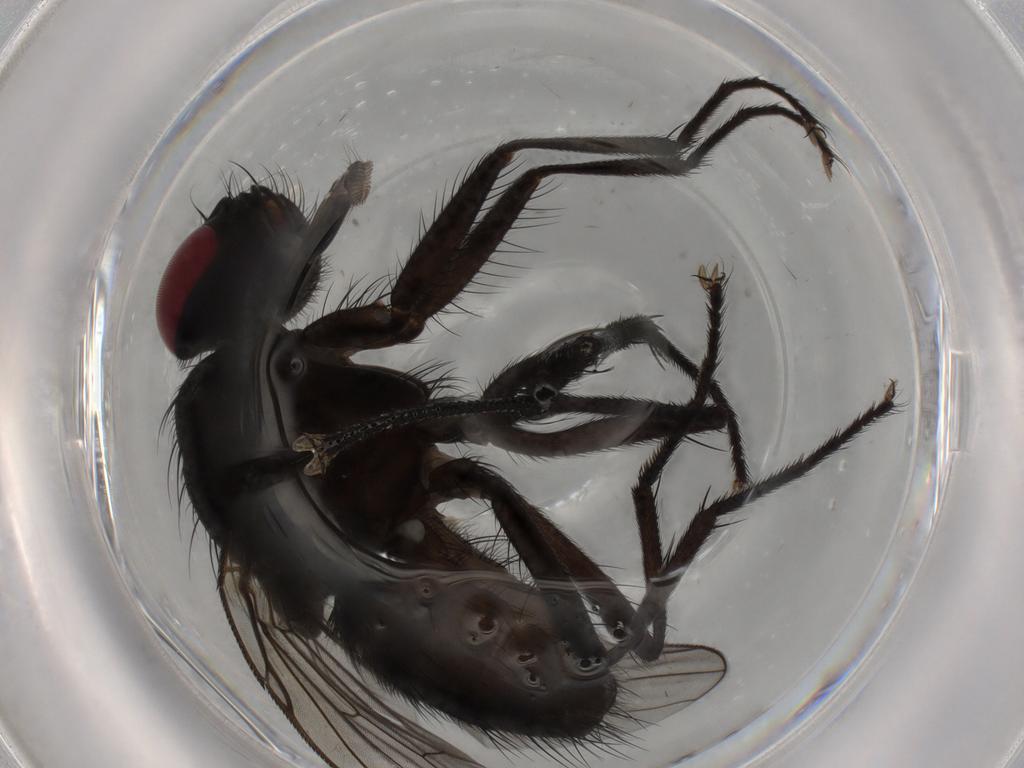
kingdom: Animalia
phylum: Arthropoda
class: Insecta
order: Diptera
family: Muscidae
